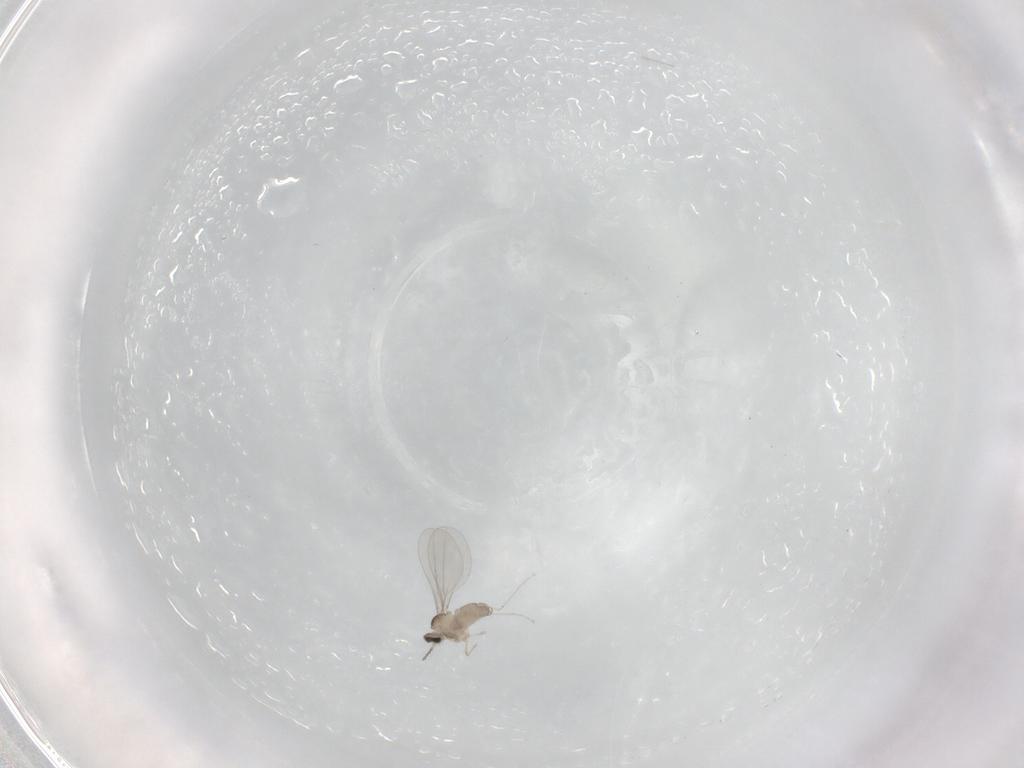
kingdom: Animalia
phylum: Arthropoda
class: Insecta
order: Diptera
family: Cecidomyiidae
